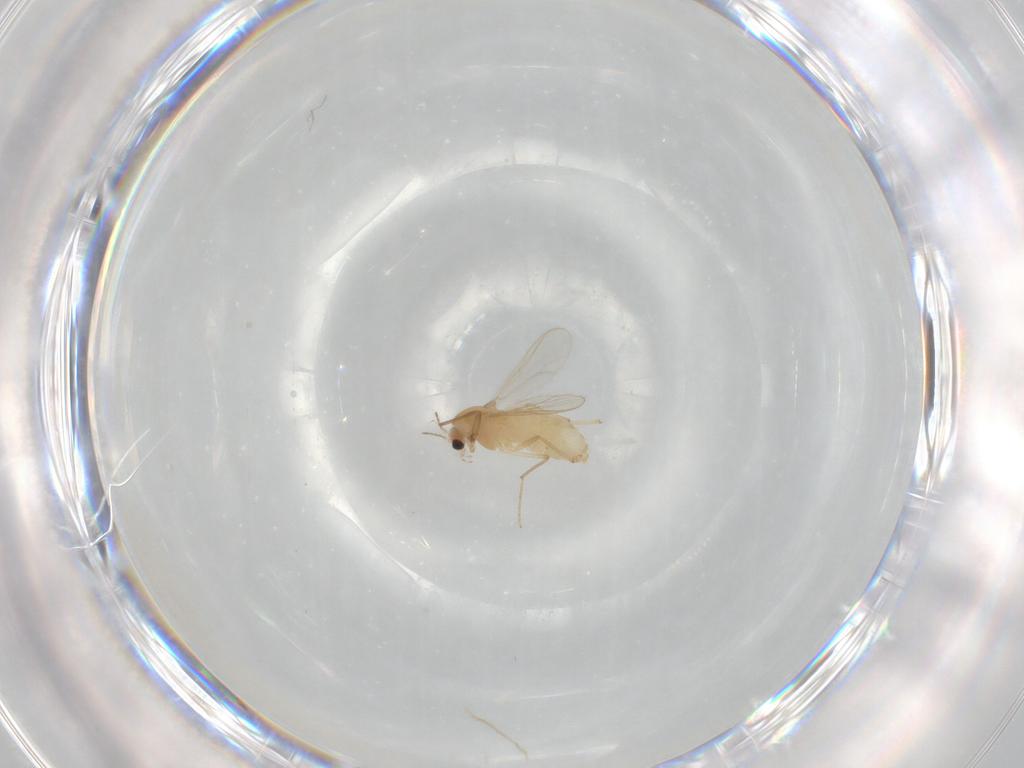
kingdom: Animalia
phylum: Arthropoda
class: Insecta
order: Diptera
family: Chironomidae
